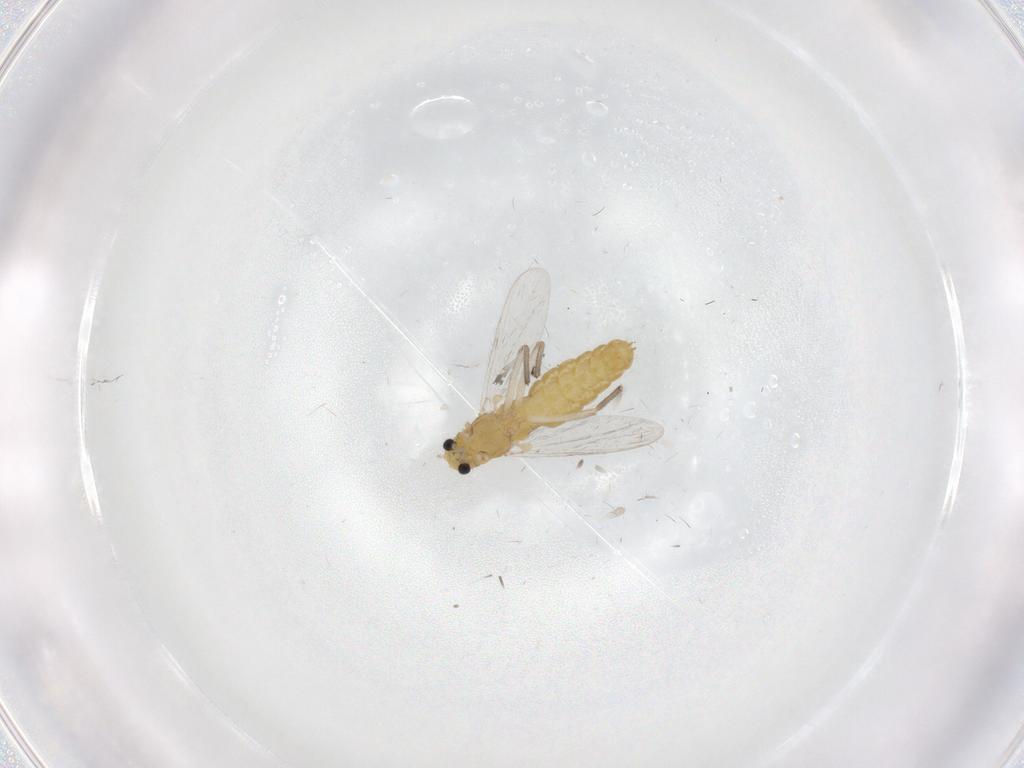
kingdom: Animalia
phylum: Arthropoda
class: Insecta
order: Diptera
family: Chironomidae
